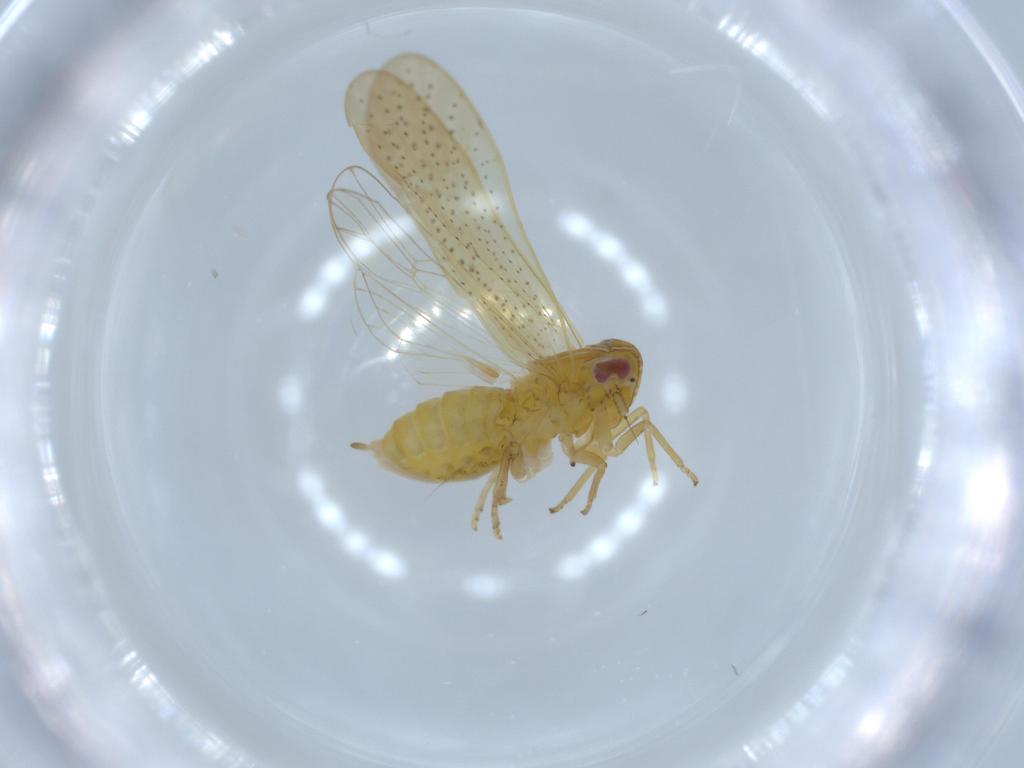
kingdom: Animalia
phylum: Arthropoda
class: Insecta
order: Hemiptera
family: Delphacidae
